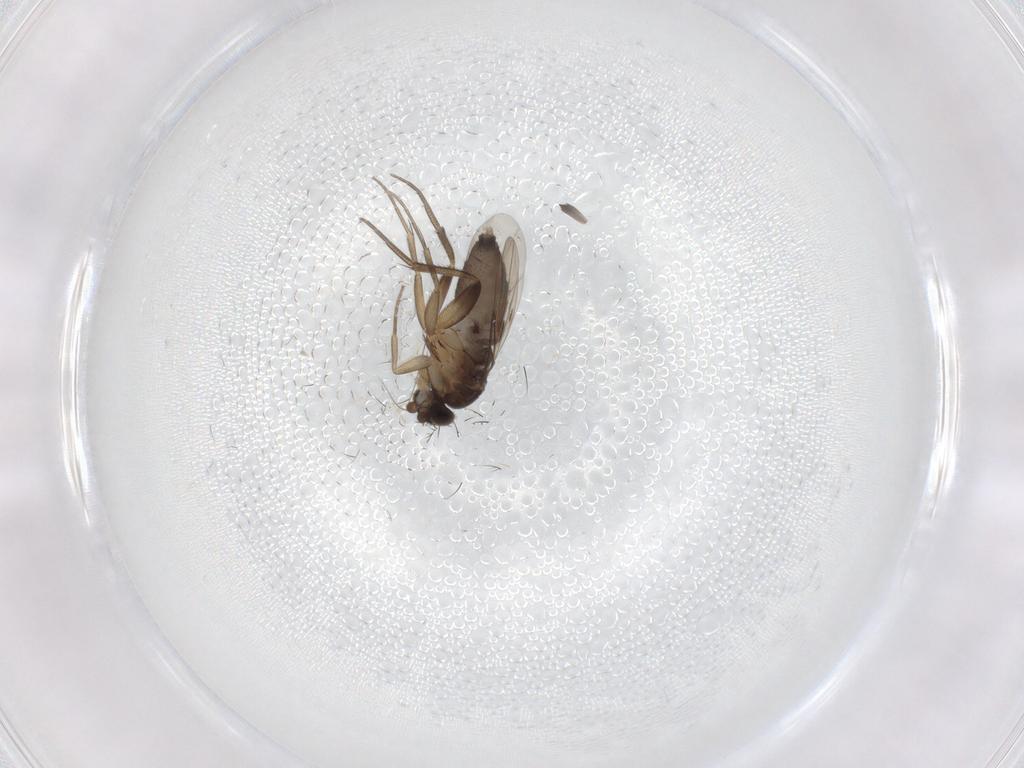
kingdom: Animalia
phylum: Arthropoda
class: Insecta
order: Diptera
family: Phoridae
